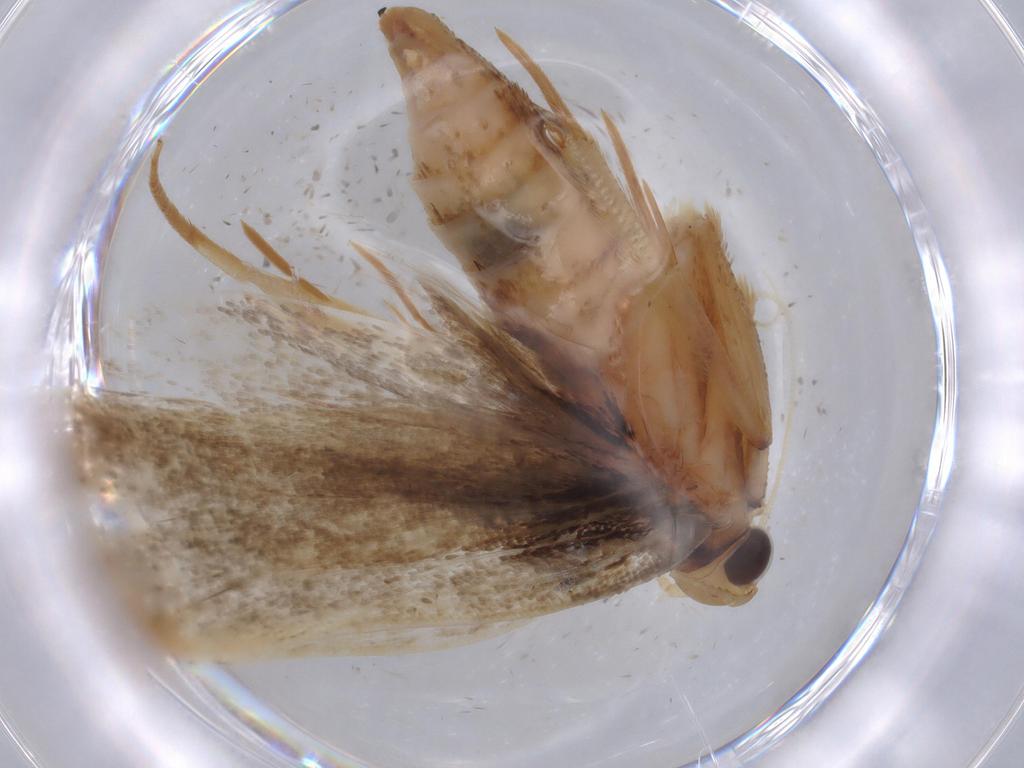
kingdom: Animalia
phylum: Arthropoda
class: Insecta
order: Lepidoptera
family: Gelechiidae
